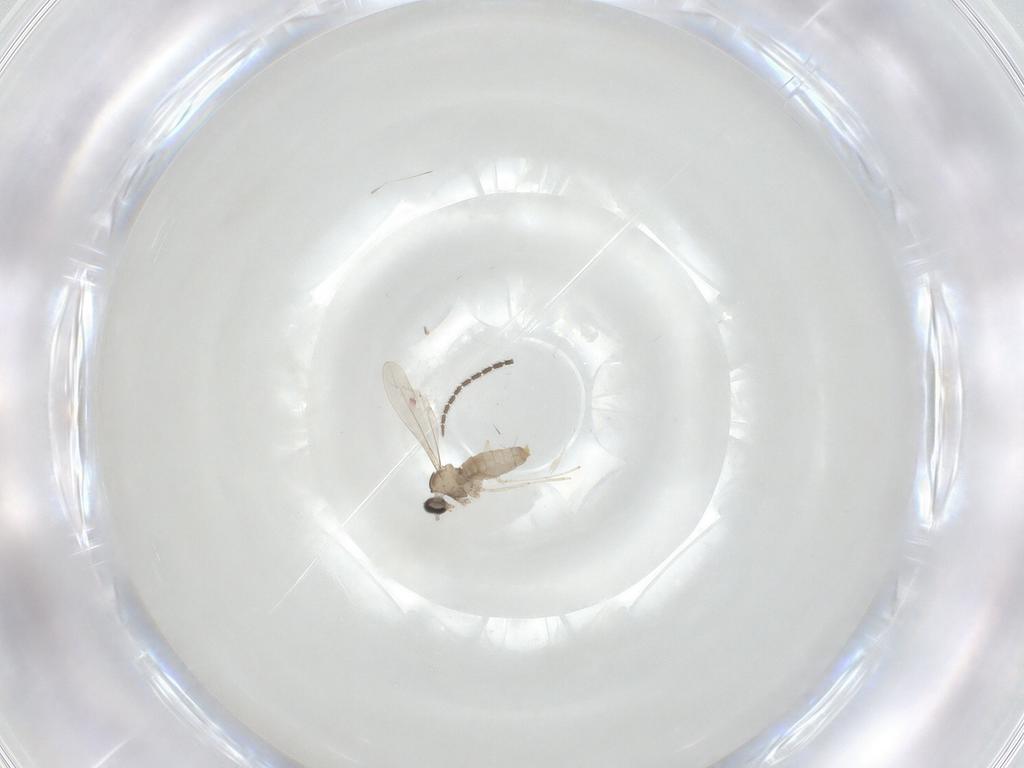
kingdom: Animalia
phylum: Arthropoda
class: Insecta
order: Diptera
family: Cecidomyiidae
